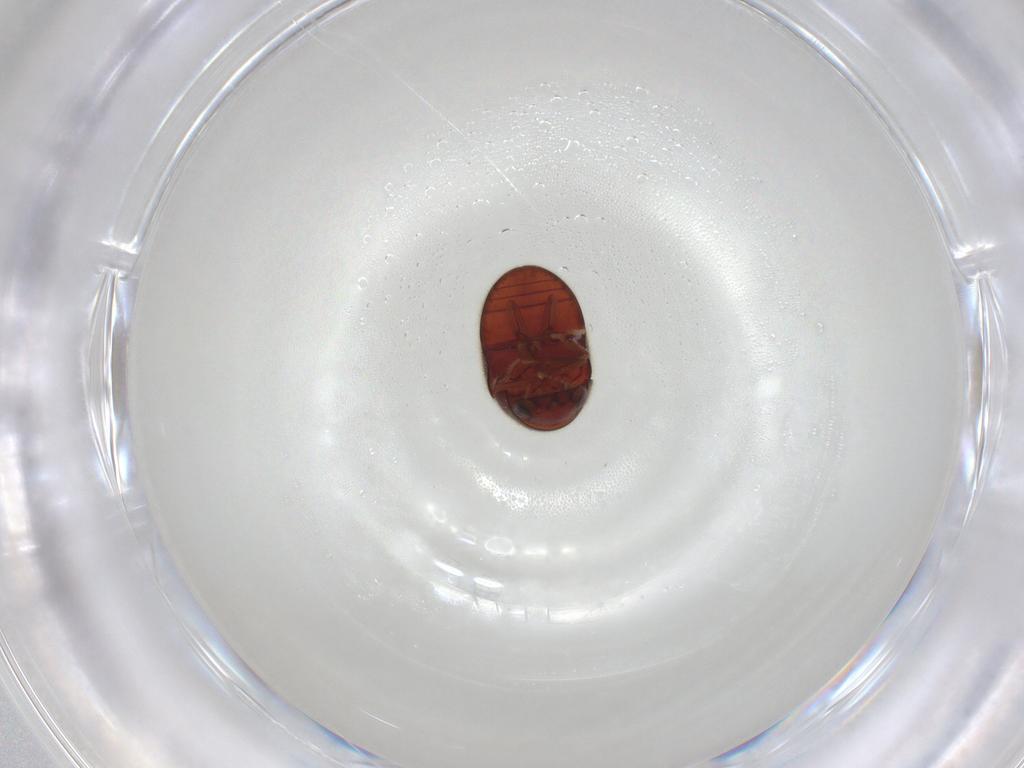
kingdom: Animalia
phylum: Arthropoda
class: Insecta
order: Coleoptera
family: Ptinidae
